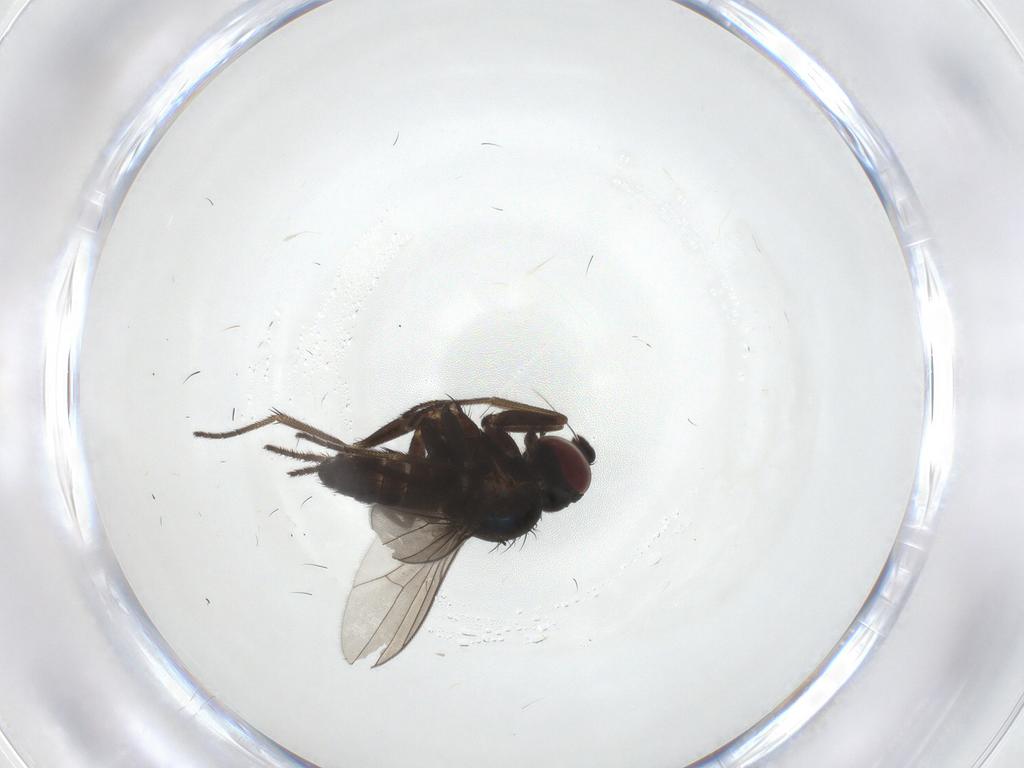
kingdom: Animalia
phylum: Arthropoda
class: Insecta
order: Diptera
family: Dolichopodidae
